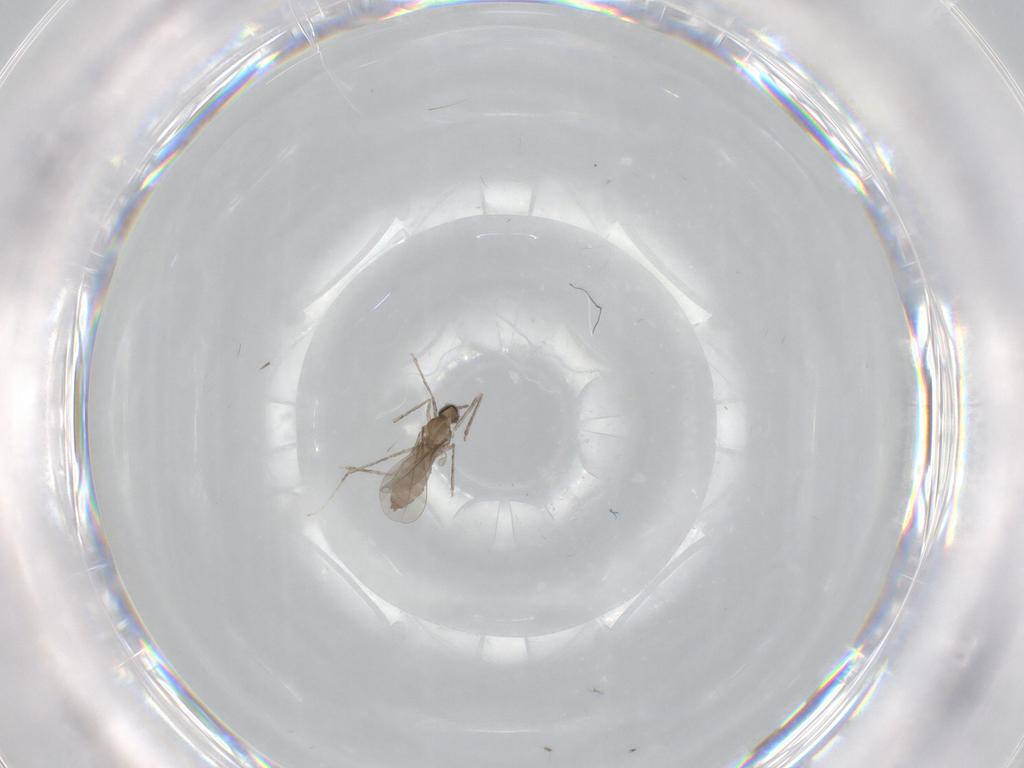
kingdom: Animalia
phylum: Arthropoda
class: Insecta
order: Diptera
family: Cecidomyiidae
